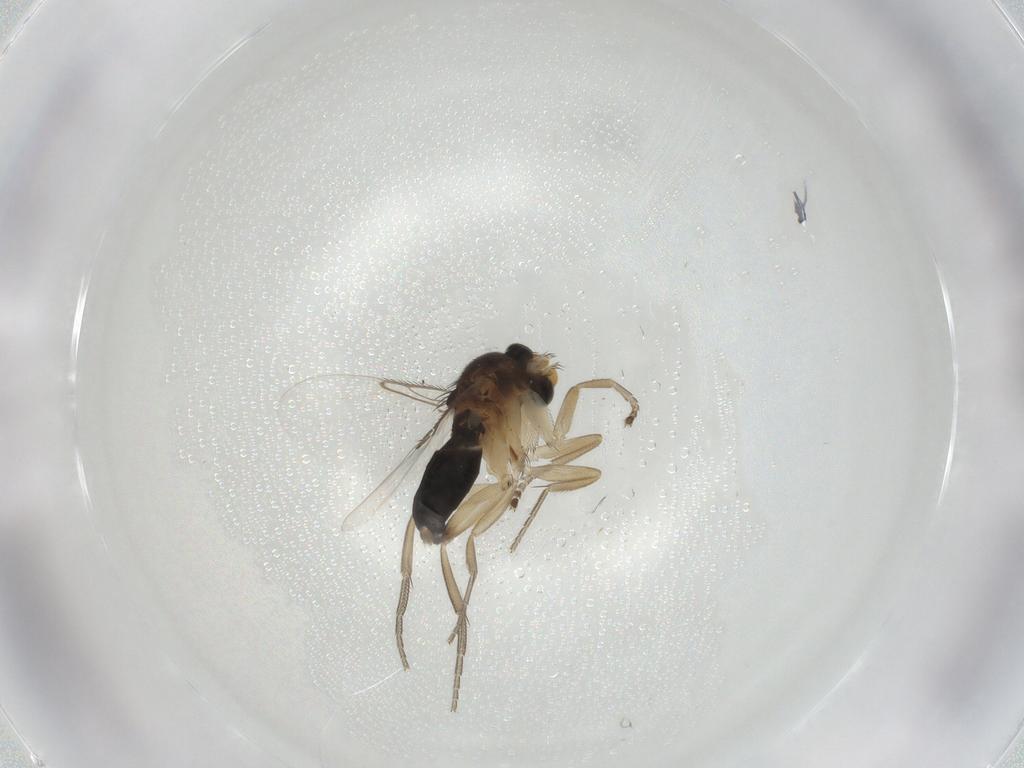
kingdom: Animalia
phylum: Arthropoda
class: Insecta
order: Diptera
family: Phoridae
